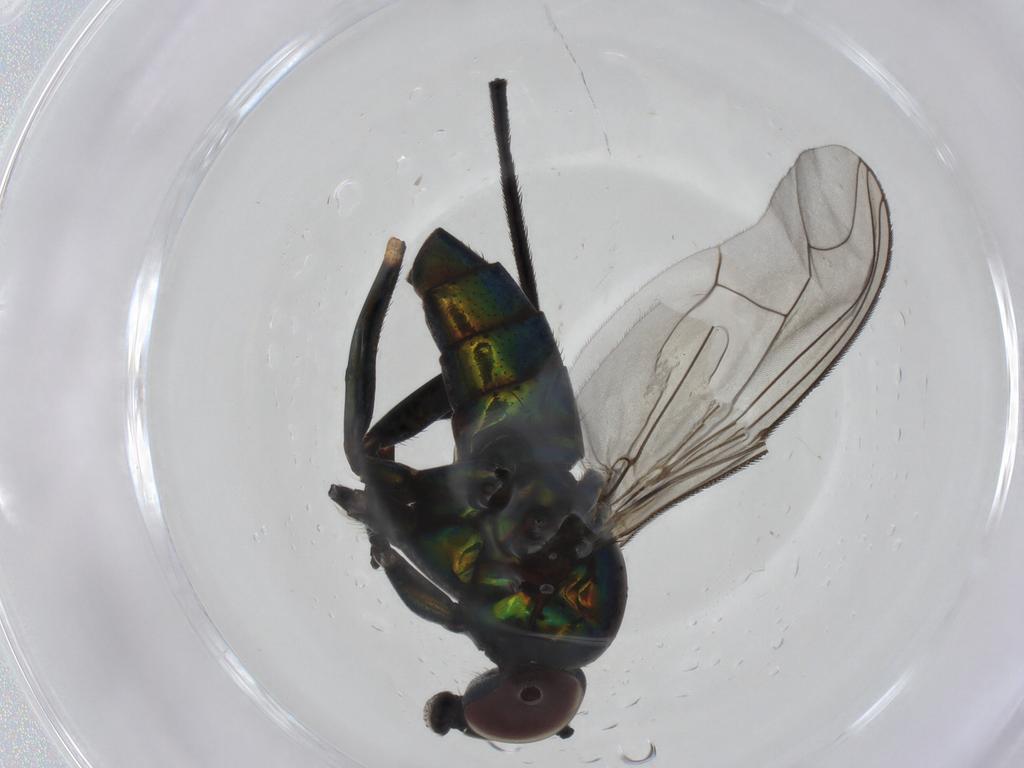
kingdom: Animalia
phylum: Arthropoda
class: Insecta
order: Diptera
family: Dolichopodidae
